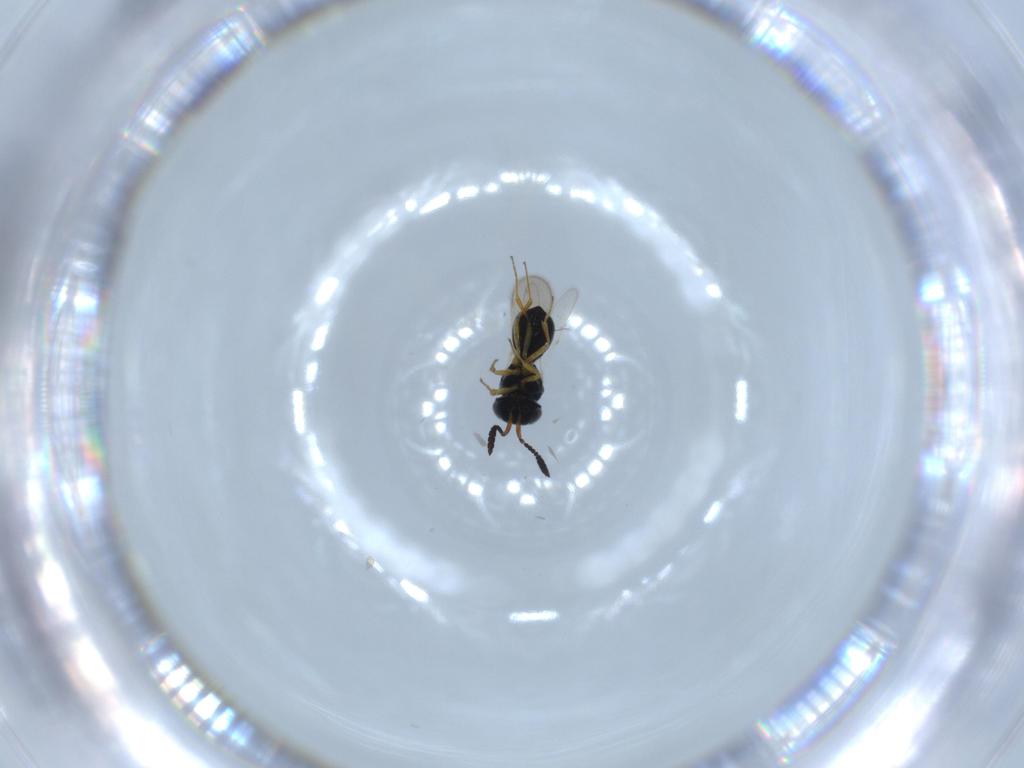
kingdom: Animalia
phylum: Arthropoda
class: Insecta
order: Hymenoptera
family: Scelionidae
